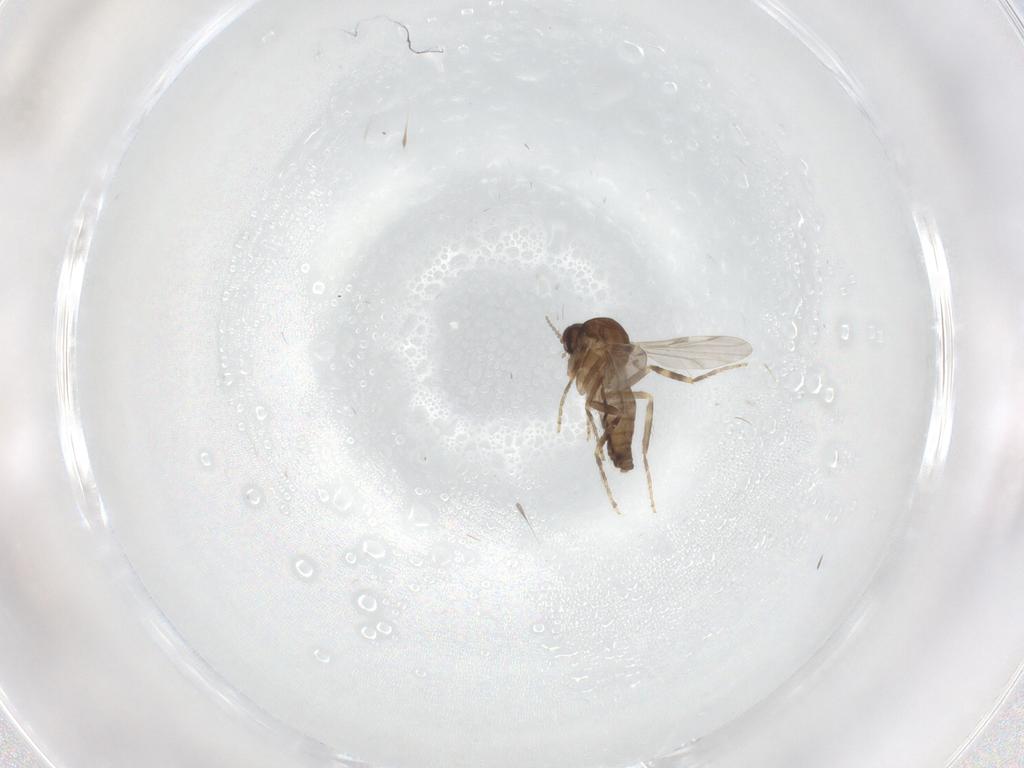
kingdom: Animalia
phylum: Arthropoda
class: Insecta
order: Diptera
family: Ceratopogonidae
